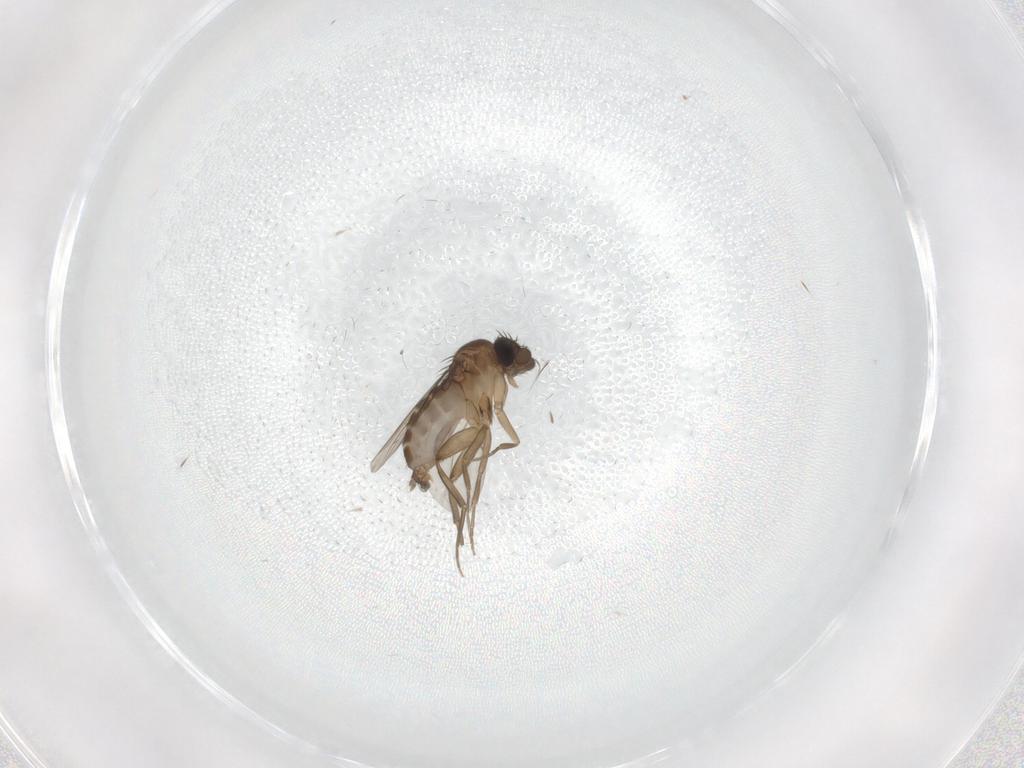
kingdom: Animalia
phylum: Arthropoda
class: Insecta
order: Diptera
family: Phoridae
